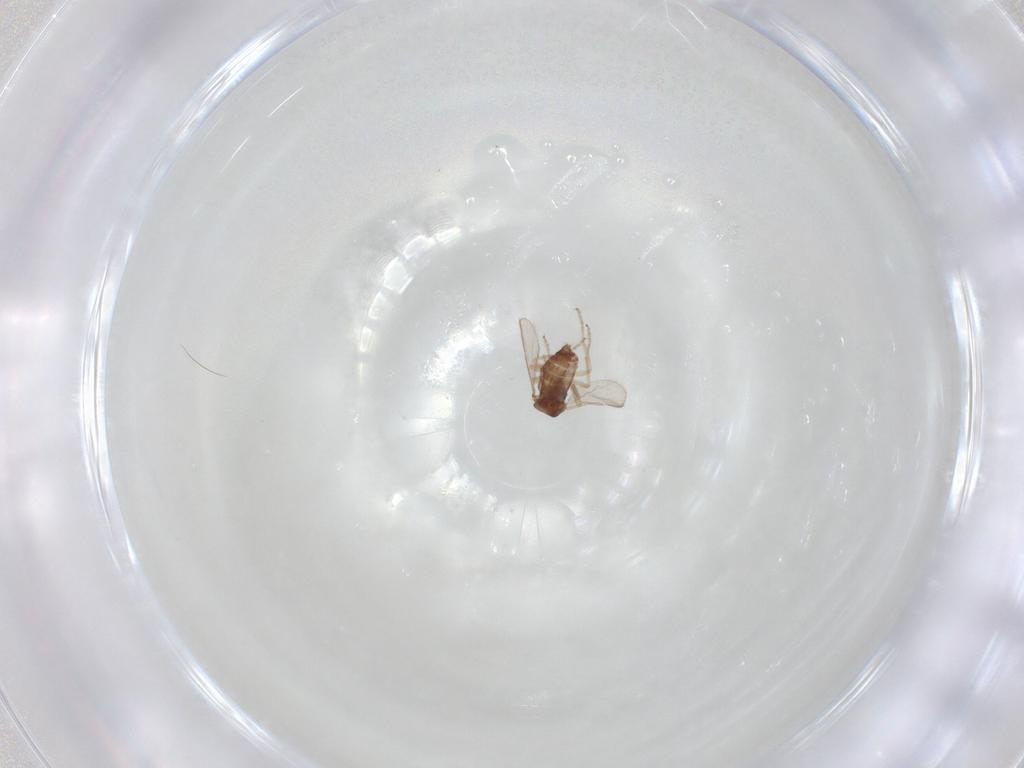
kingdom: Animalia
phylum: Arthropoda
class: Insecta
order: Diptera
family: Ceratopogonidae
